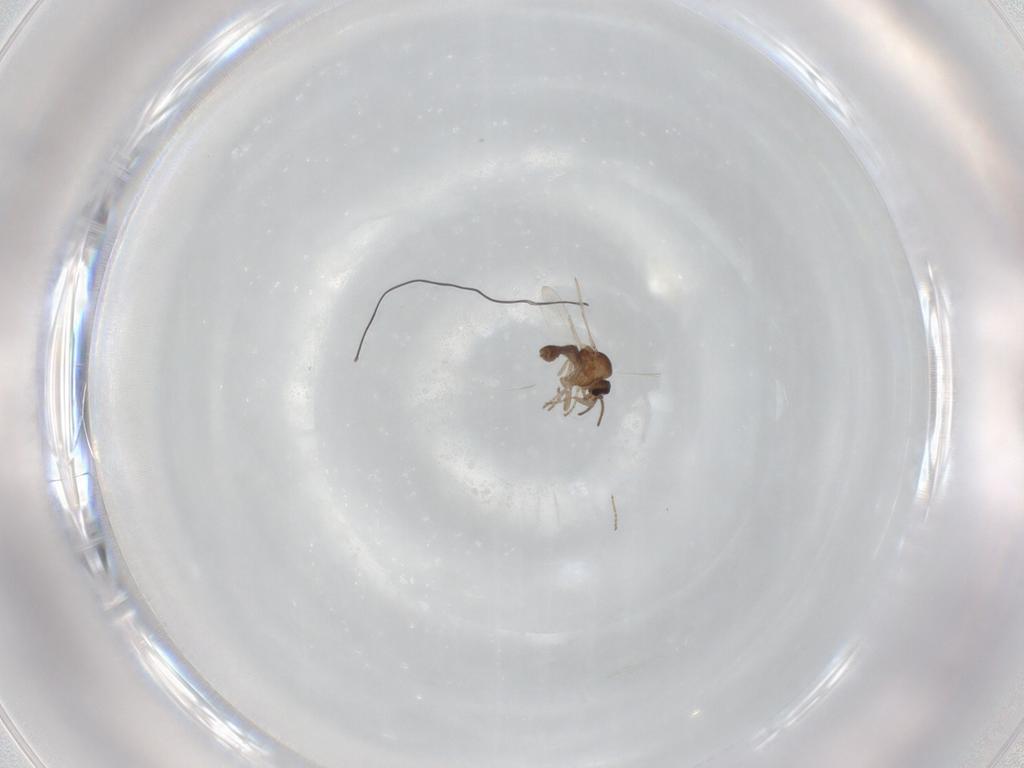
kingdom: Animalia
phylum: Arthropoda
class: Insecta
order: Diptera
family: Ceratopogonidae
